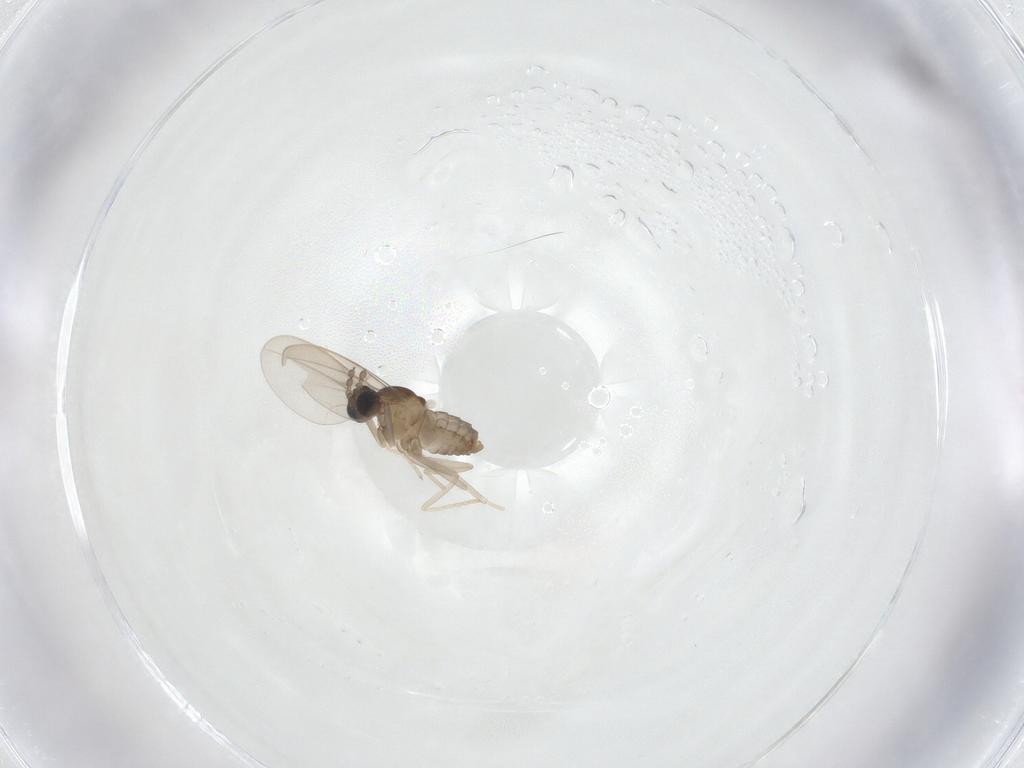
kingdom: Animalia
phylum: Arthropoda
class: Insecta
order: Diptera
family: Cecidomyiidae
